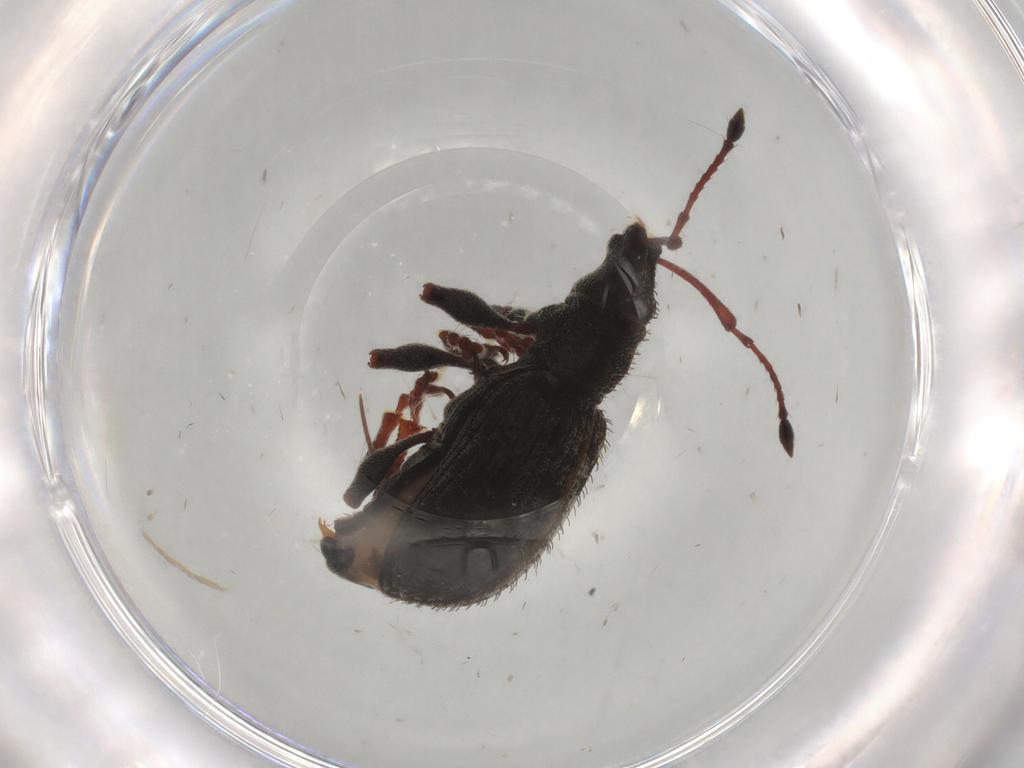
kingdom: Animalia
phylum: Arthropoda
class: Insecta
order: Coleoptera
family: Curculionidae
